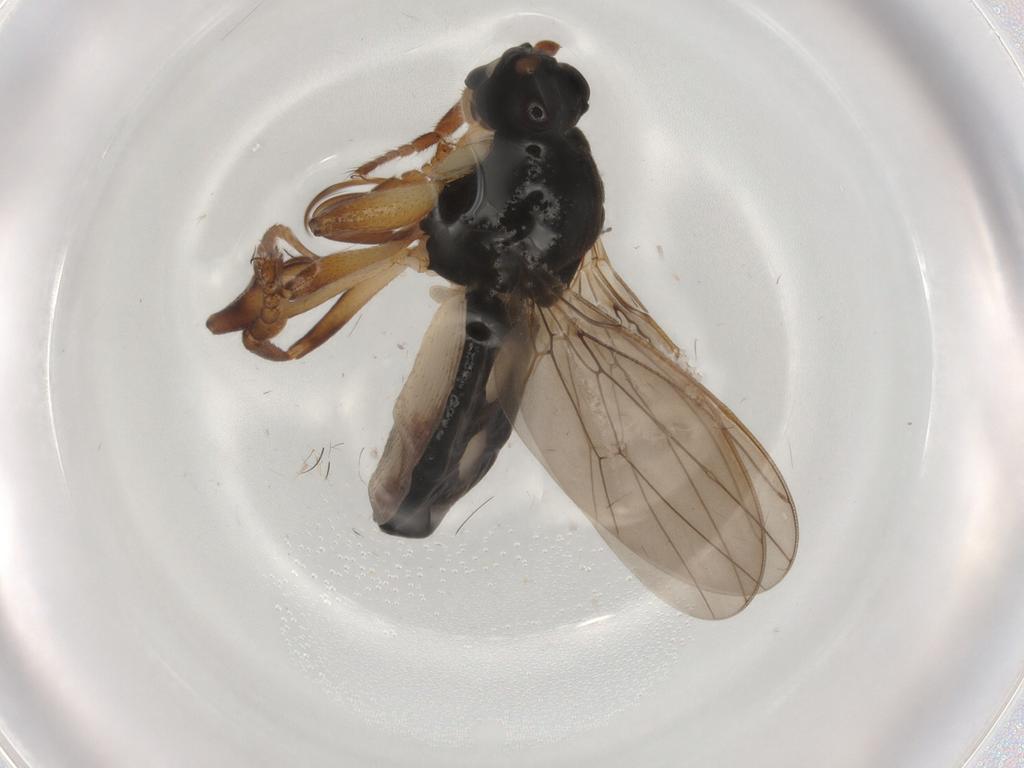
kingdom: Animalia
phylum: Arthropoda
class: Insecta
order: Diptera
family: Sphaeroceridae
